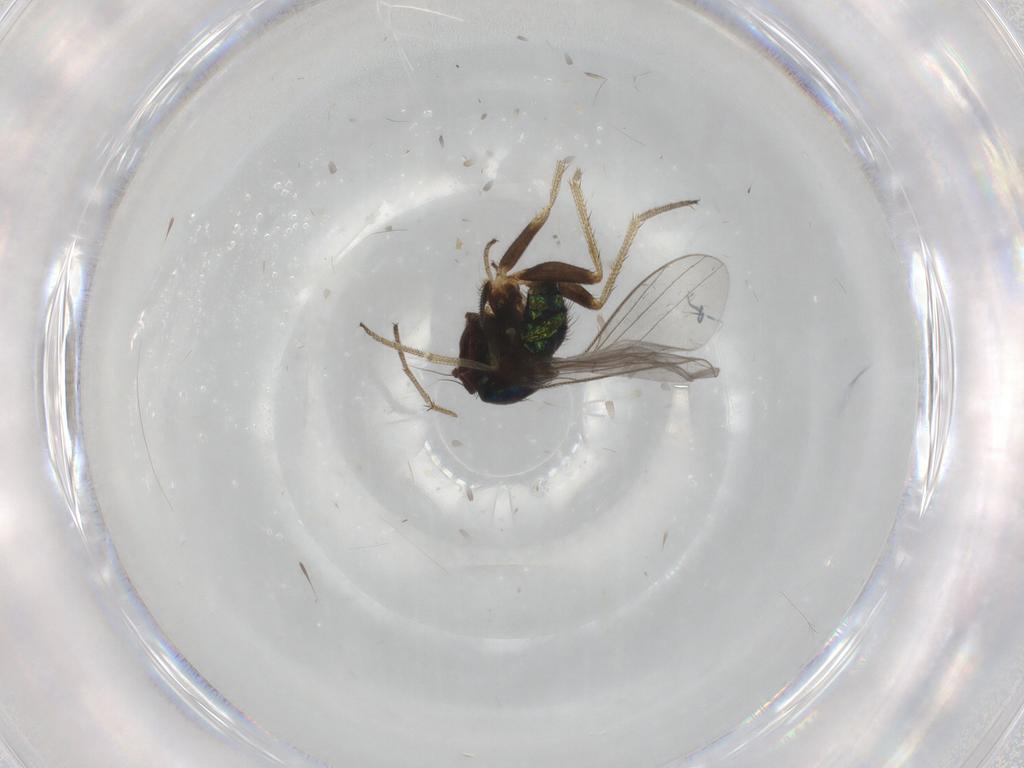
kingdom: Animalia
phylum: Arthropoda
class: Insecta
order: Diptera
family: Dolichopodidae
